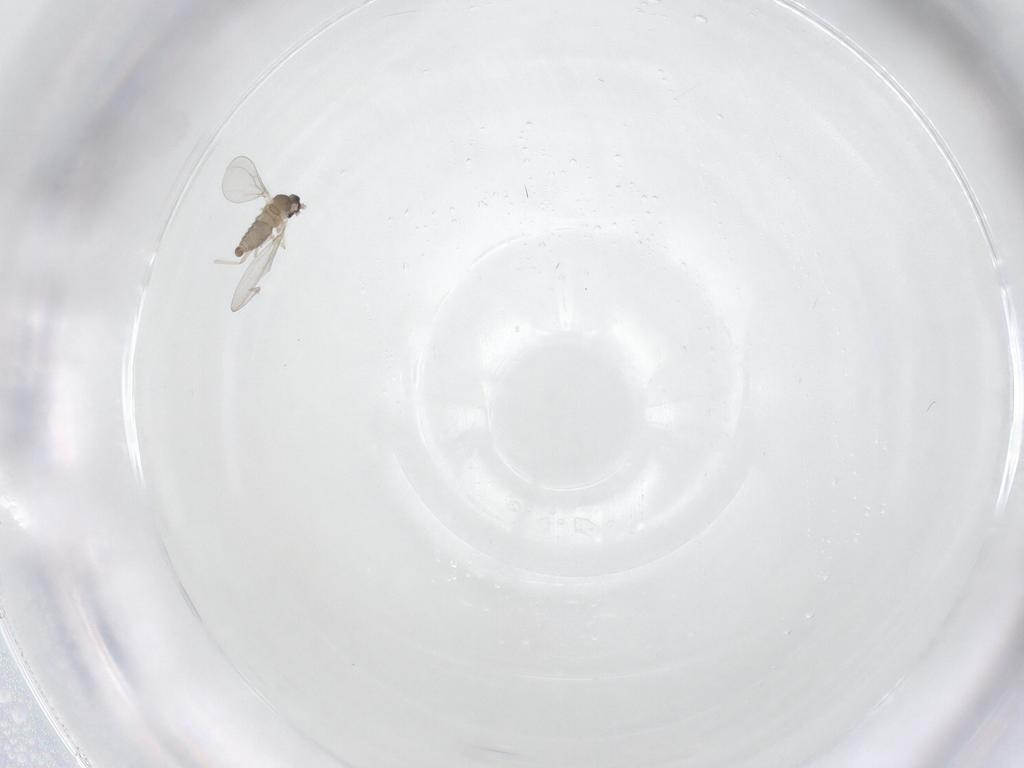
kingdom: Animalia
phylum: Arthropoda
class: Insecta
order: Diptera
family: Cecidomyiidae
